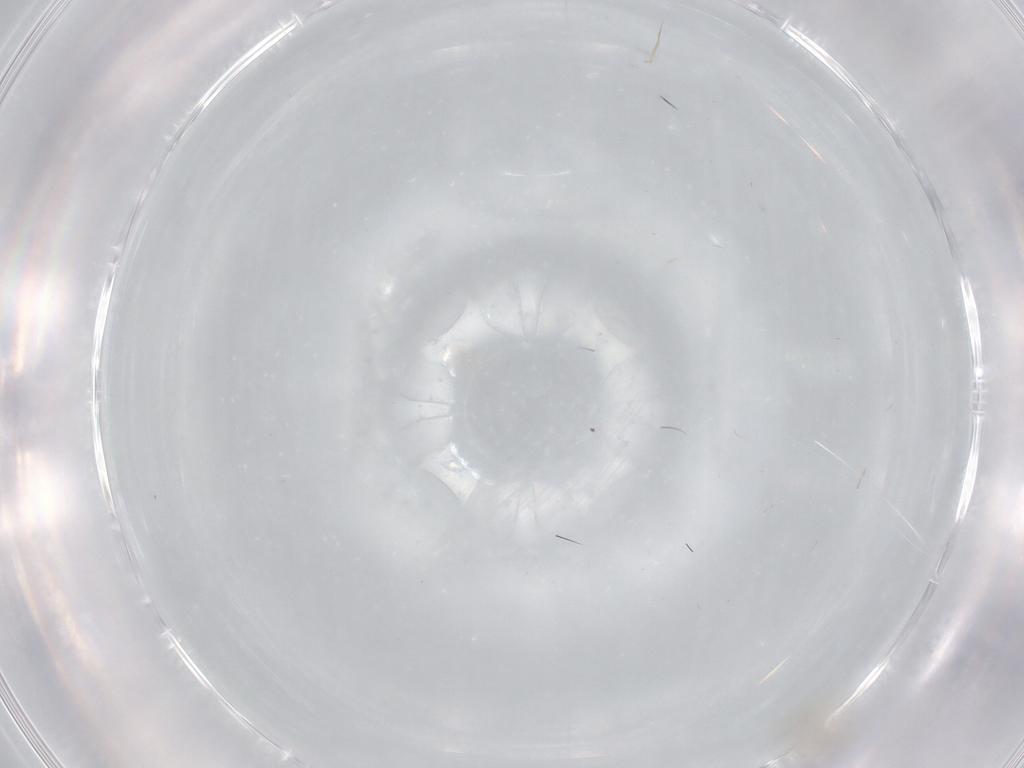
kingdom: Animalia
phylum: Arthropoda
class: Insecta
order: Diptera
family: Cecidomyiidae
